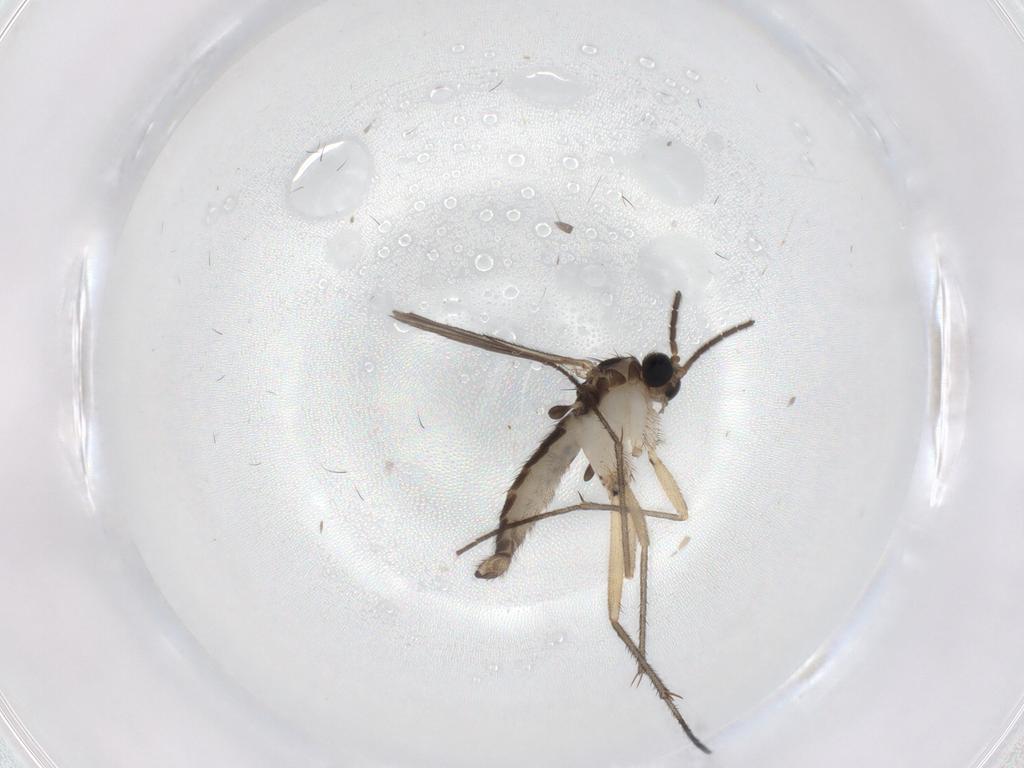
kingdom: Animalia
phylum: Arthropoda
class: Insecta
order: Diptera
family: Sciaridae
